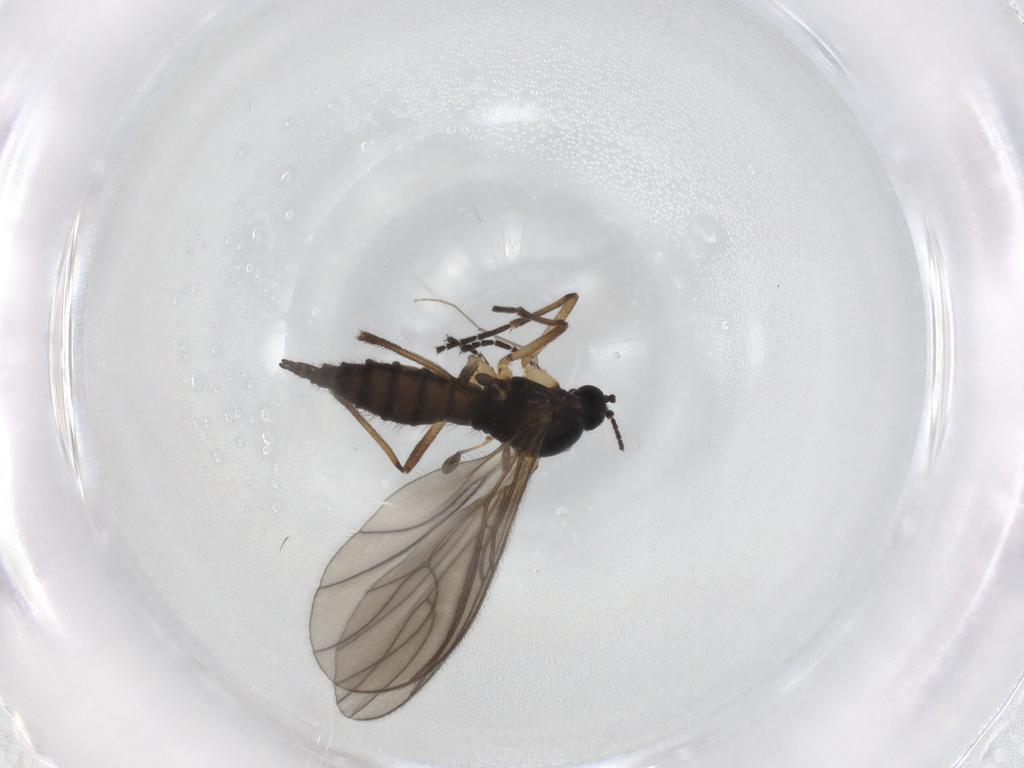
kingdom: Animalia
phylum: Arthropoda
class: Insecta
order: Diptera
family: Sciaridae
